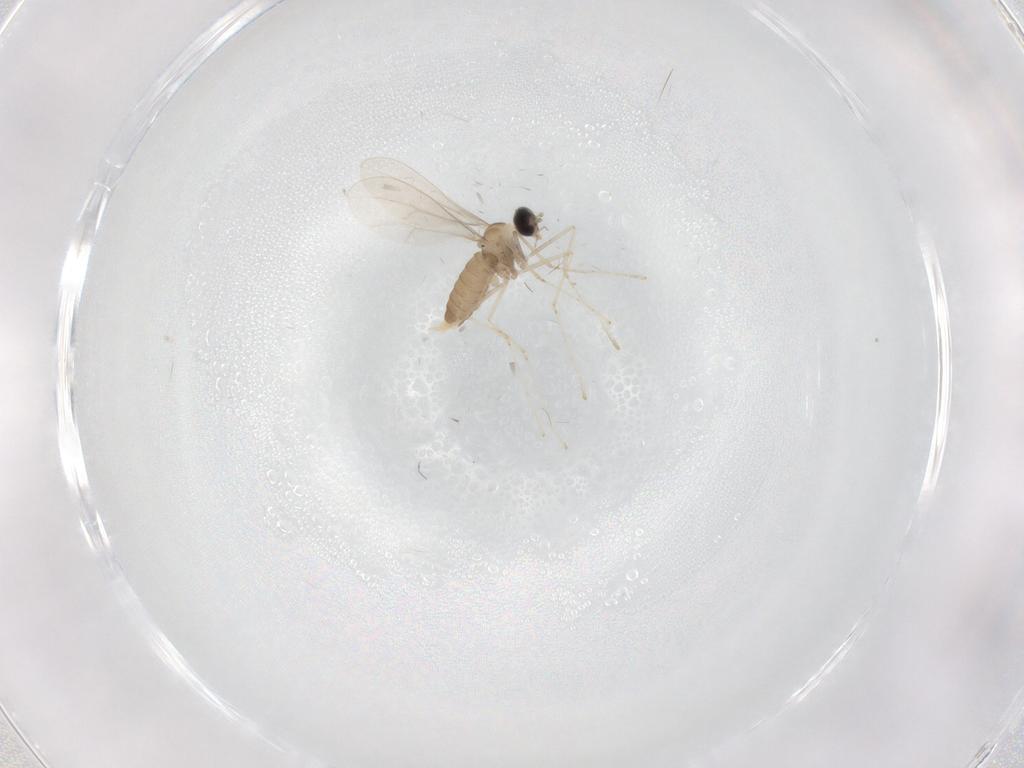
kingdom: Animalia
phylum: Arthropoda
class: Insecta
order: Diptera
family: Cecidomyiidae
